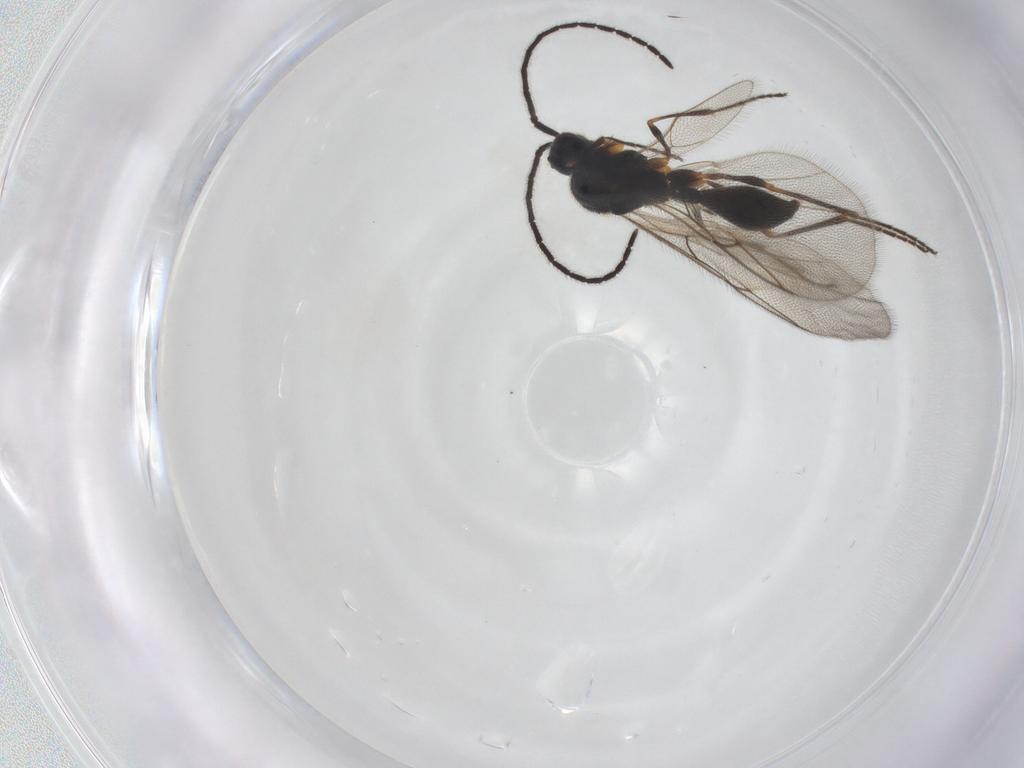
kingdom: Animalia
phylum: Arthropoda
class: Insecta
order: Hymenoptera
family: Diapriidae
